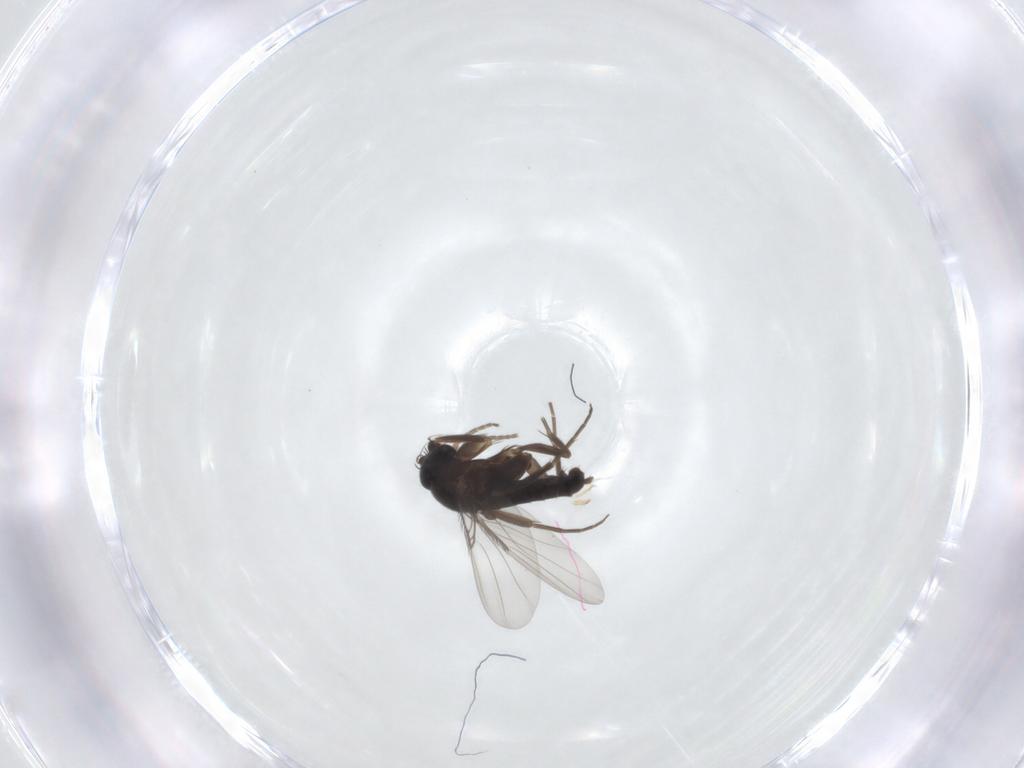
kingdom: Animalia
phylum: Arthropoda
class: Insecta
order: Diptera
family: Phoridae
